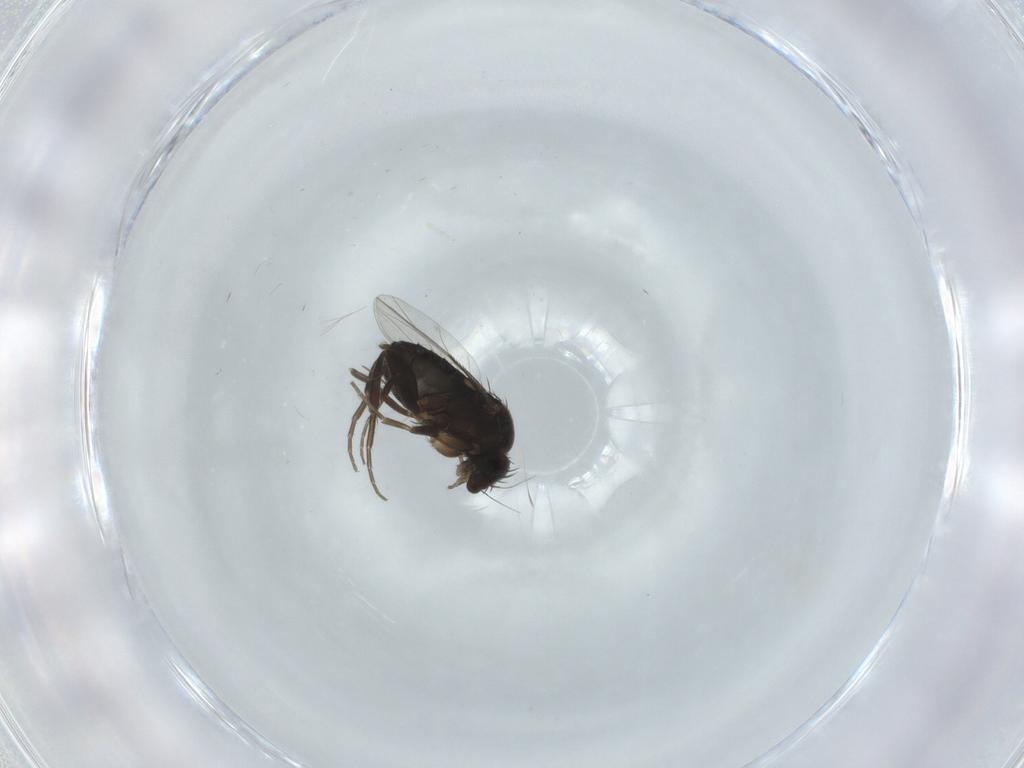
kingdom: Animalia
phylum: Arthropoda
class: Insecta
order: Diptera
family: Phoridae
